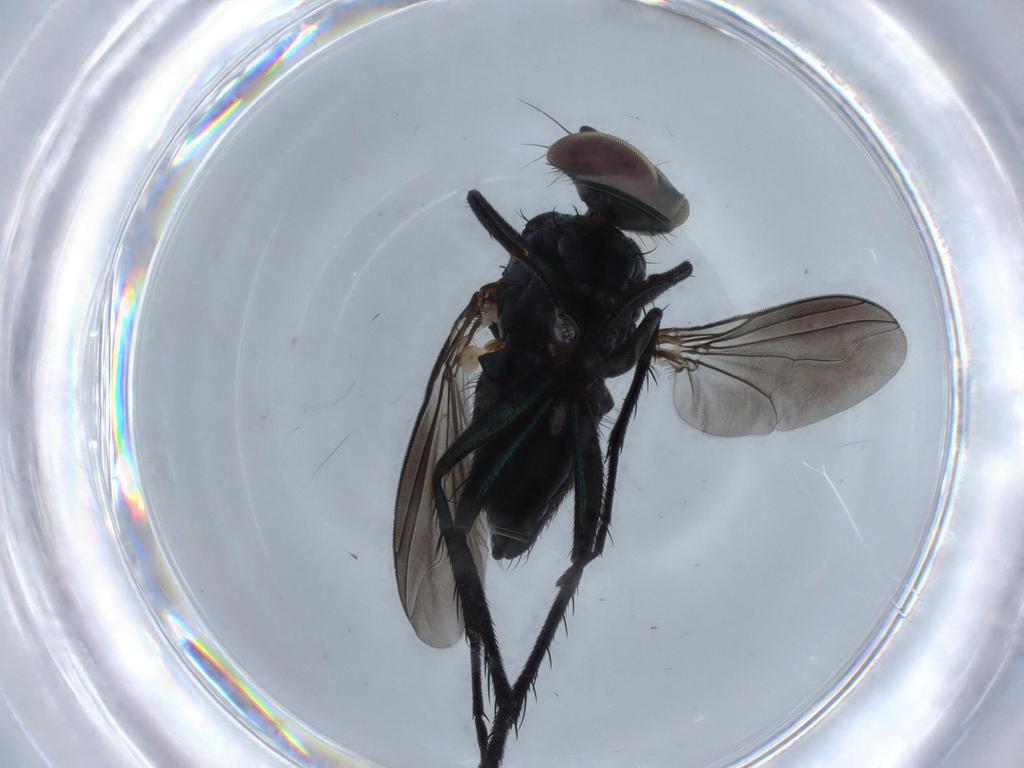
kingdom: Animalia
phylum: Arthropoda
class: Insecta
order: Diptera
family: Dolichopodidae
